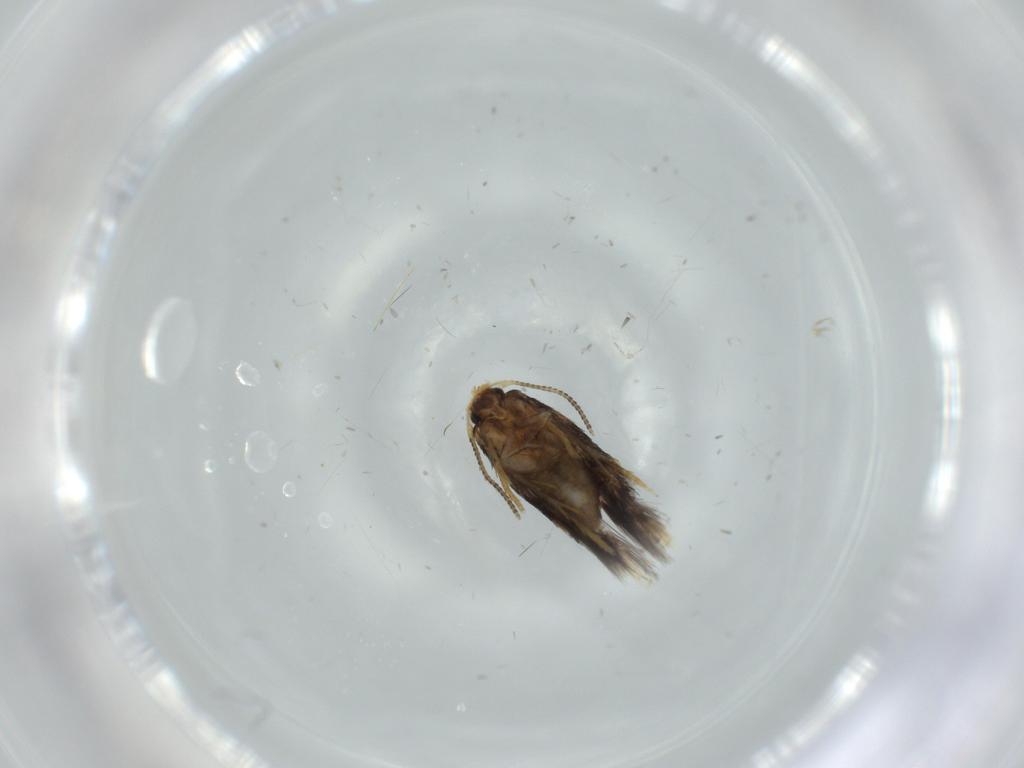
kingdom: Animalia
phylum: Arthropoda
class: Insecta
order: Lepidoptera
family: Nepticulidae
